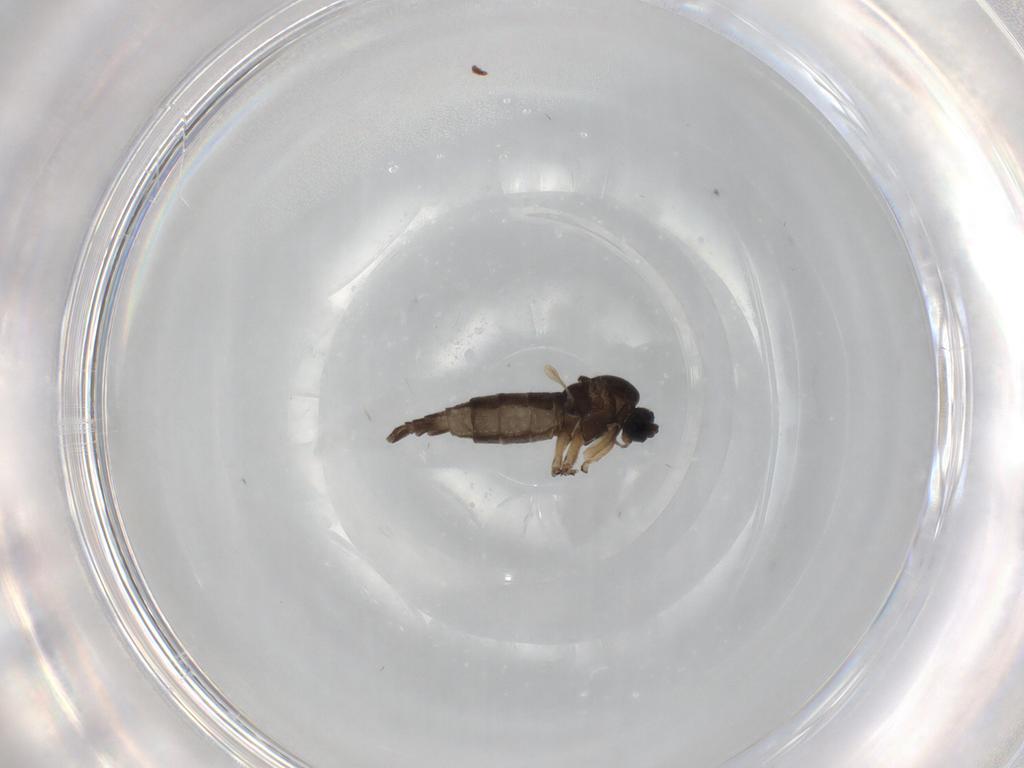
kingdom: Animalia
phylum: Arthropoda
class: Insecta
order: Diptera
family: Sciaridae
